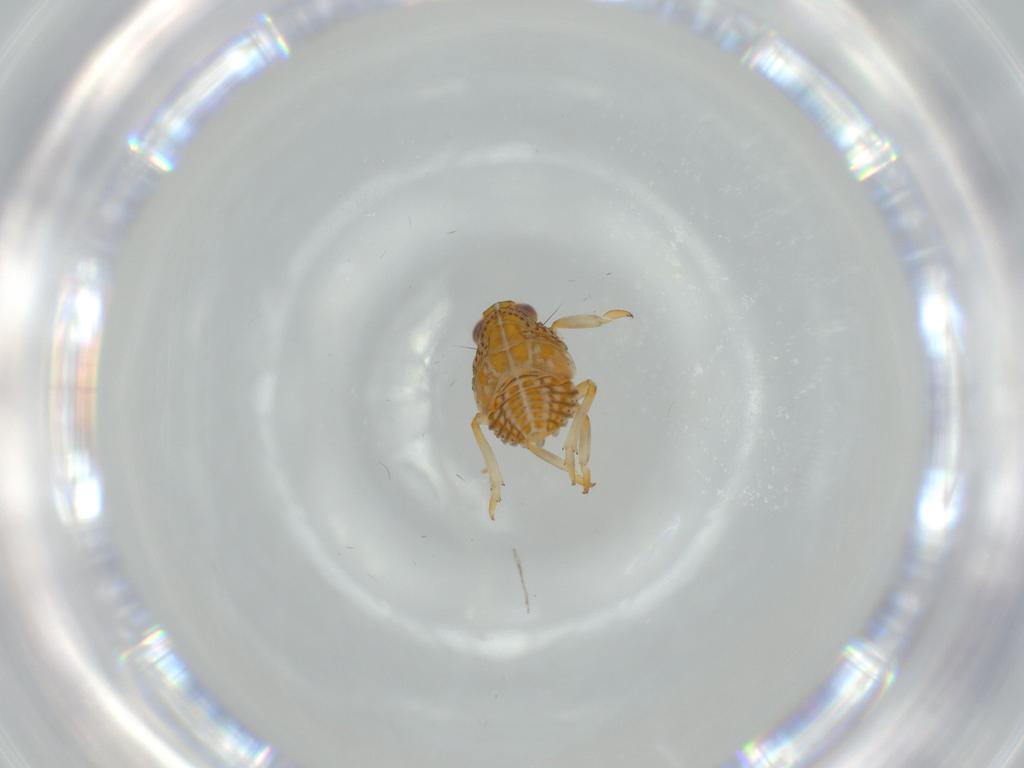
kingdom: Animalia
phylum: Arthropoda
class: Insecta
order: Hemiptera
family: Issidae
